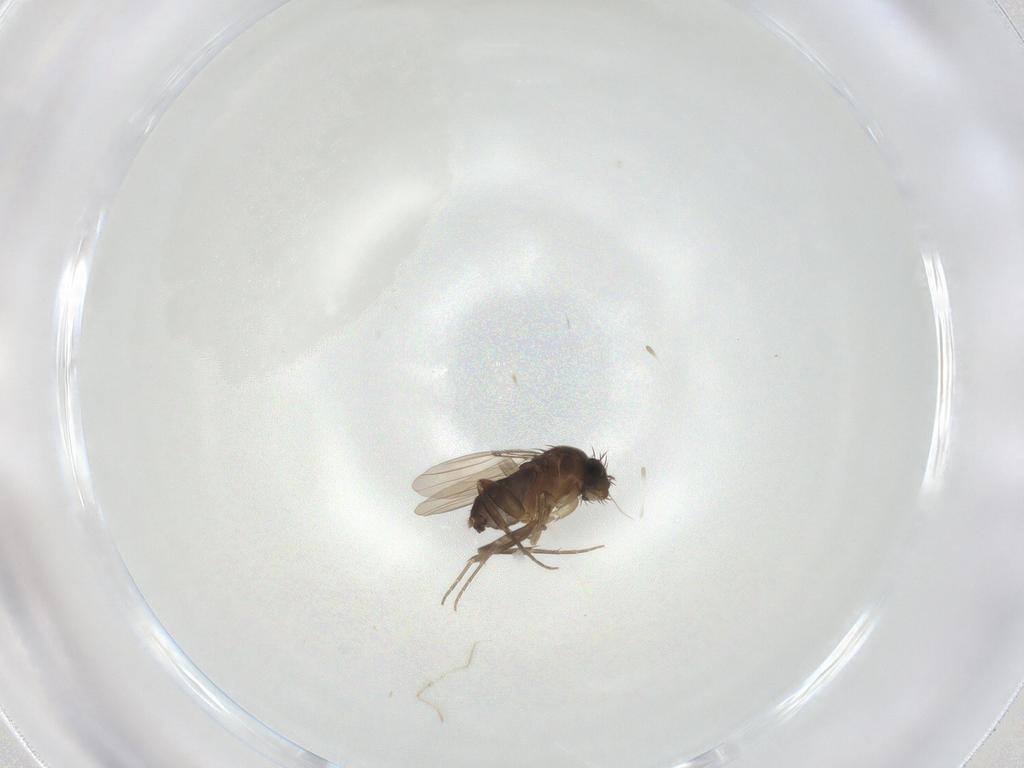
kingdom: Animalia
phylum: Arthropoda
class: Insecta
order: Diptera
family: Phoridae
